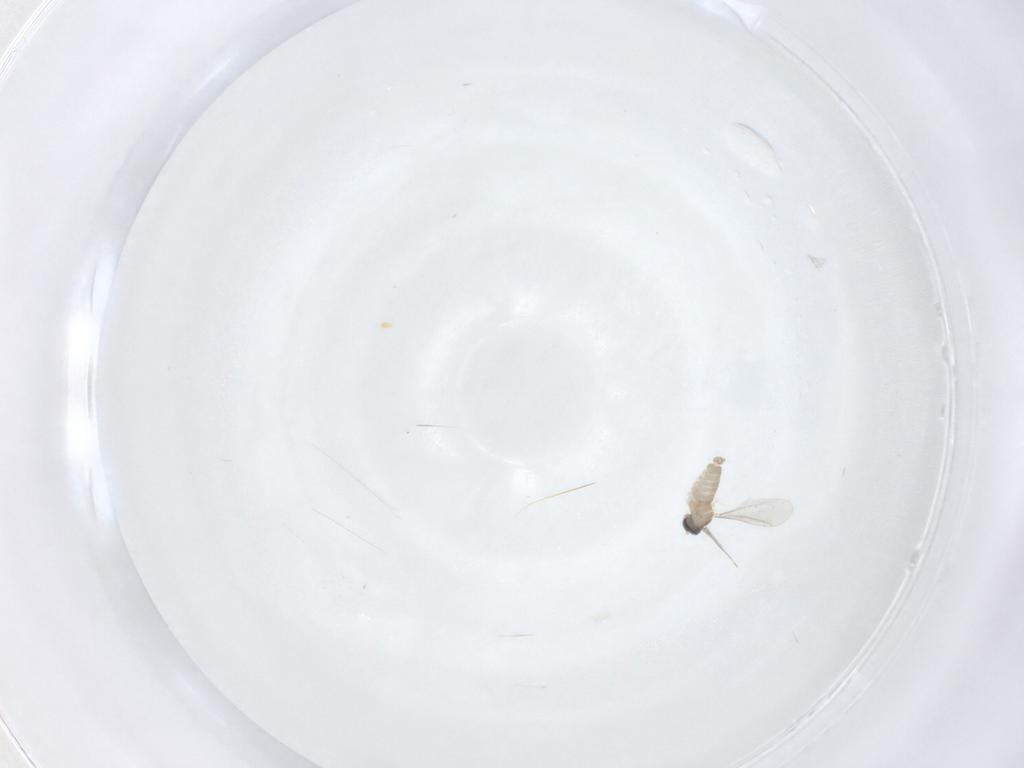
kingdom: Animalia
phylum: Arthropoda
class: Insecta
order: Diptera
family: Cecidomyiidae
